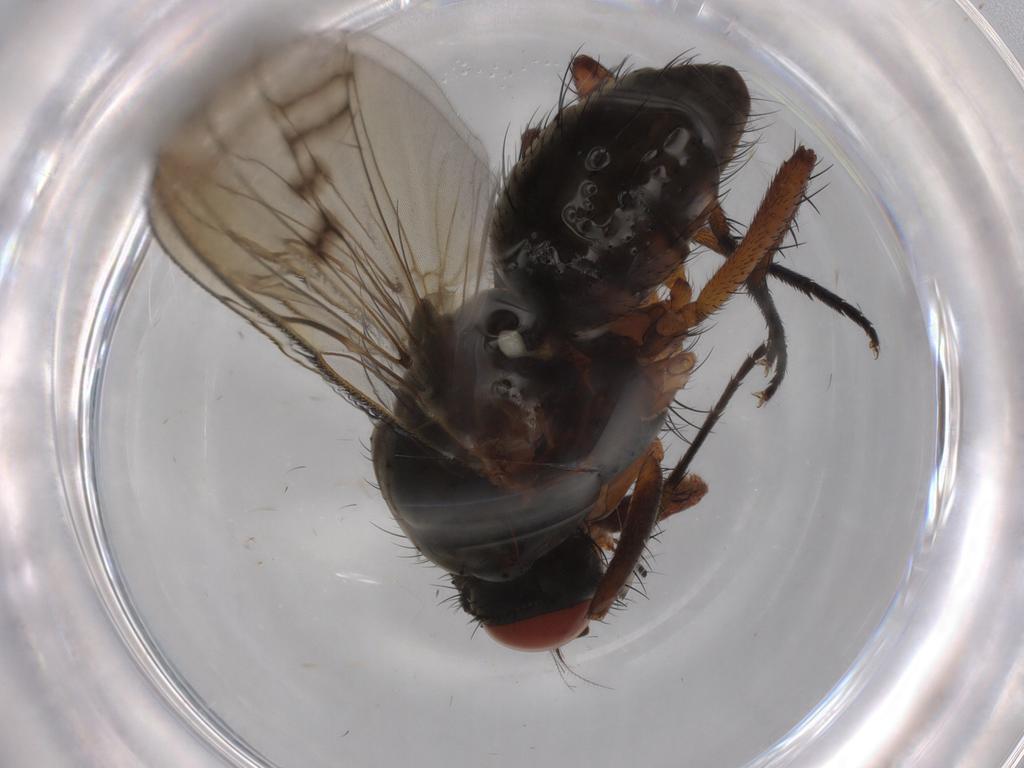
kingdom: Animalia
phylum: Arthropoda
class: Insecta
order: Diptera
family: Anthomyiidae
